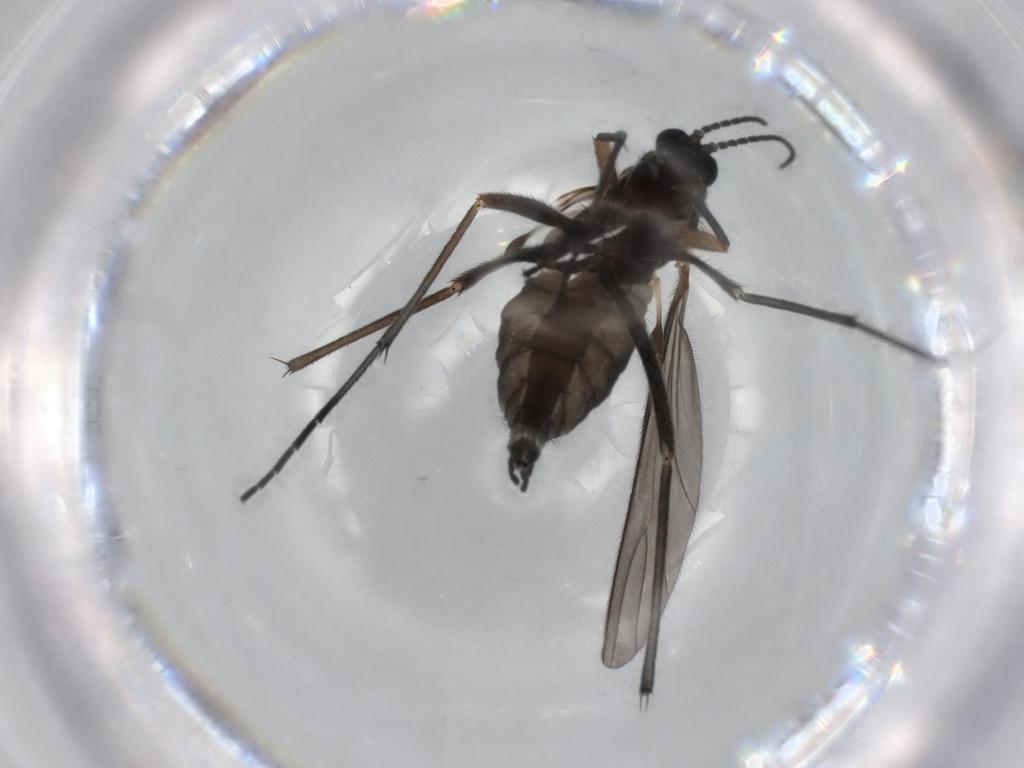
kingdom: Animalia
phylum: Arthropoda
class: Insecta
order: Diptera
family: Sciaridae
